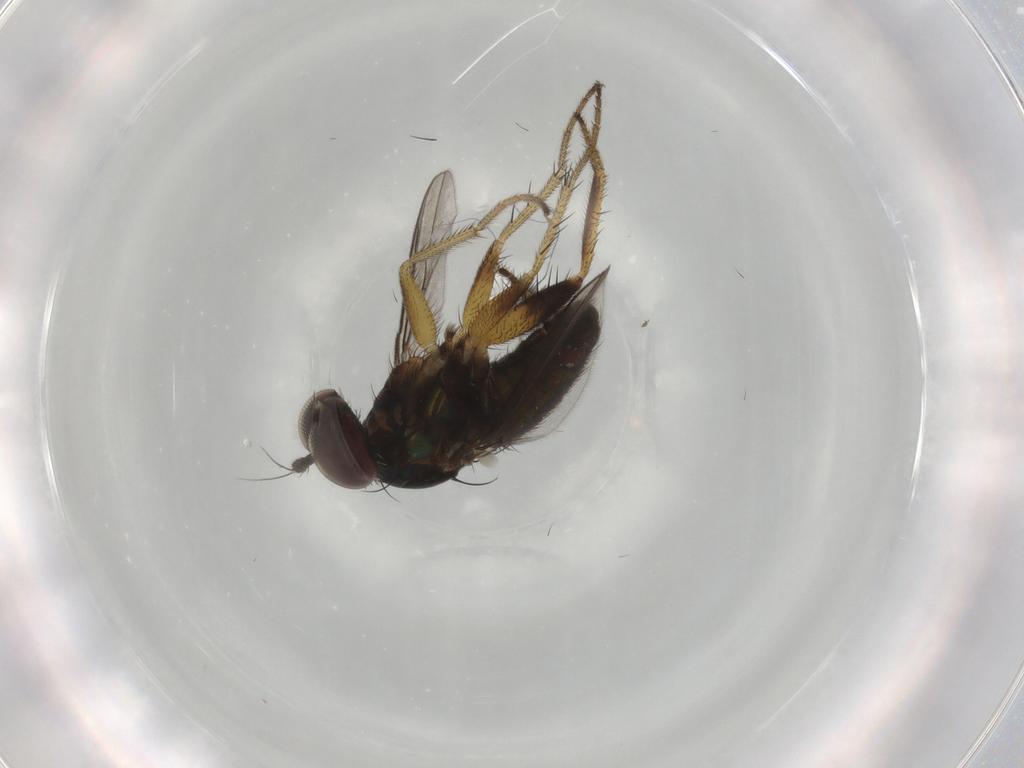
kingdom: Animalia
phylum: Arthropoda
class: Insecta
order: Diptera
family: Dolichopodidae
